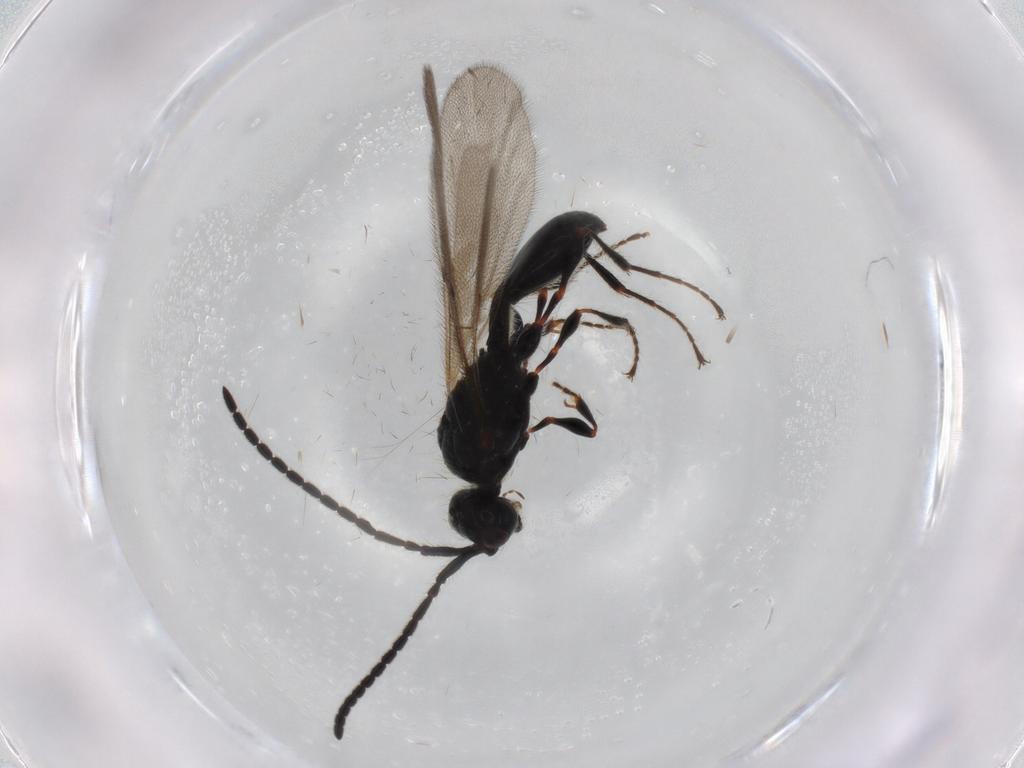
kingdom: Animalia
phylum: Arthropoda
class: Insecta
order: Hymenoptera
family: Diapriidae
